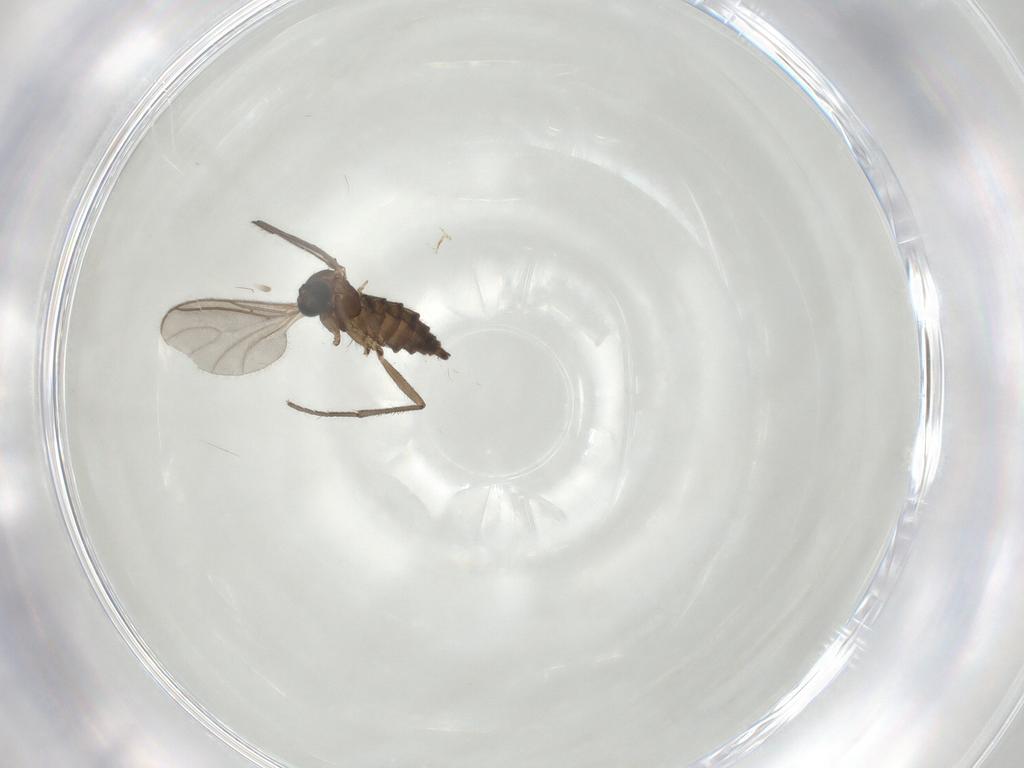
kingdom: Animalia
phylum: Arthropoda
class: Insecta
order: Diptera
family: Sciaridae
